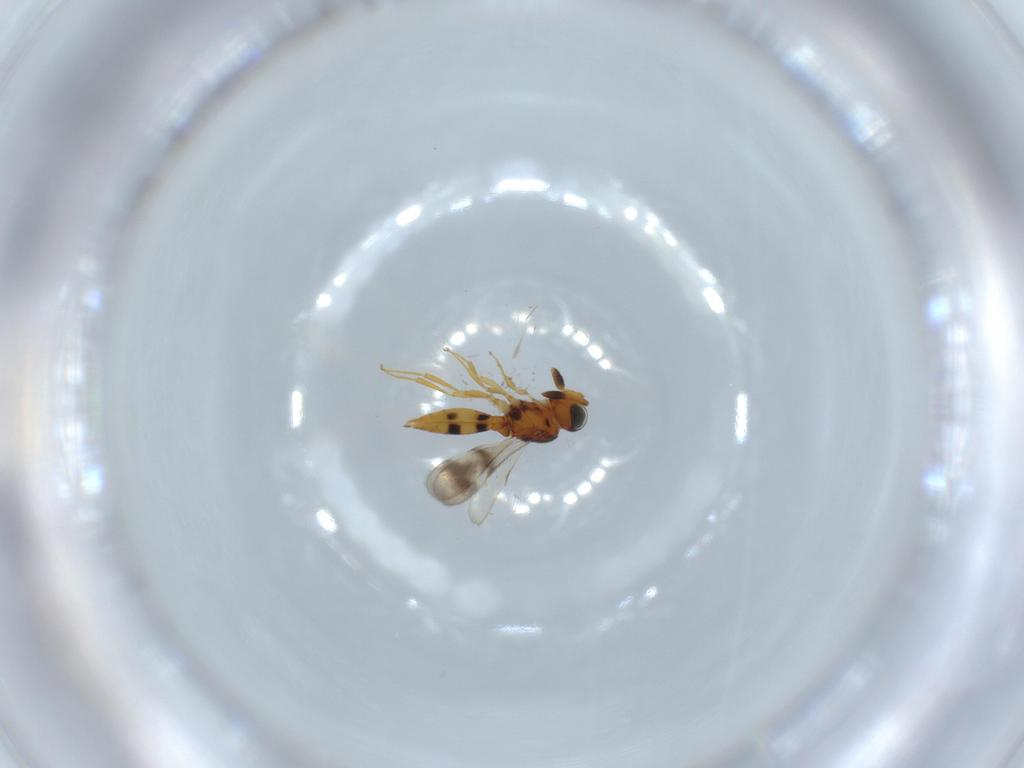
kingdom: Animalia
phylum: Arthropoda
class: Insecta
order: Hymenoptera
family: Scelionidae
